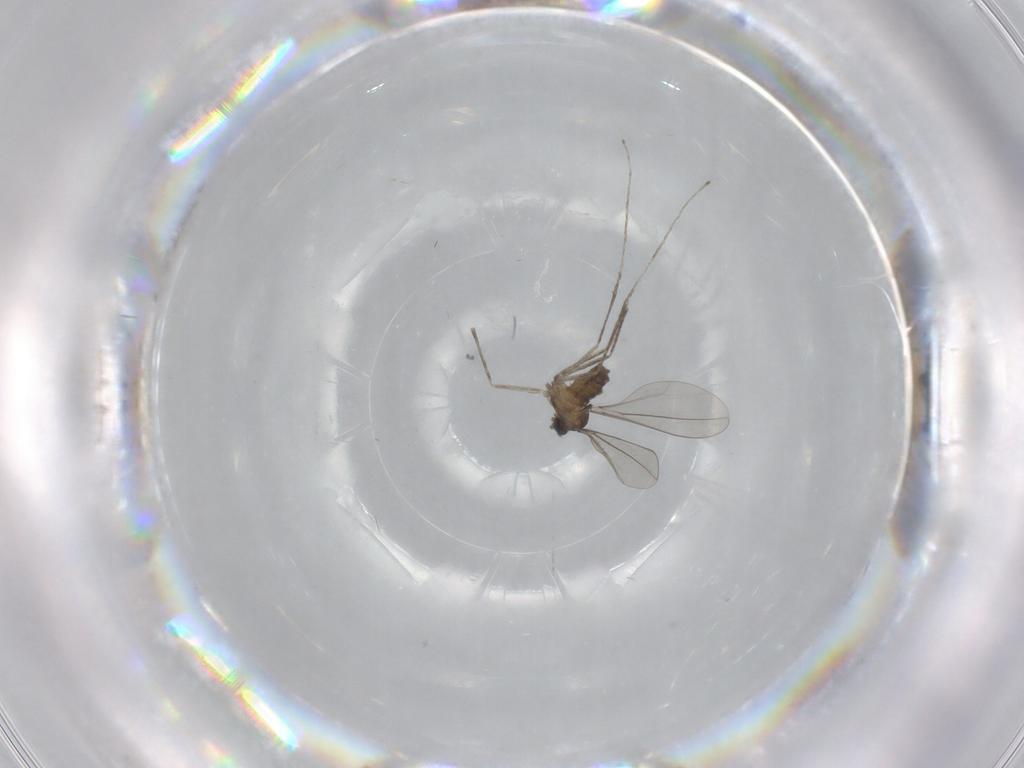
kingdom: Animalia
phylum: Arthropoda
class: Insecta
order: Diptera
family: Cecidomyiidae
